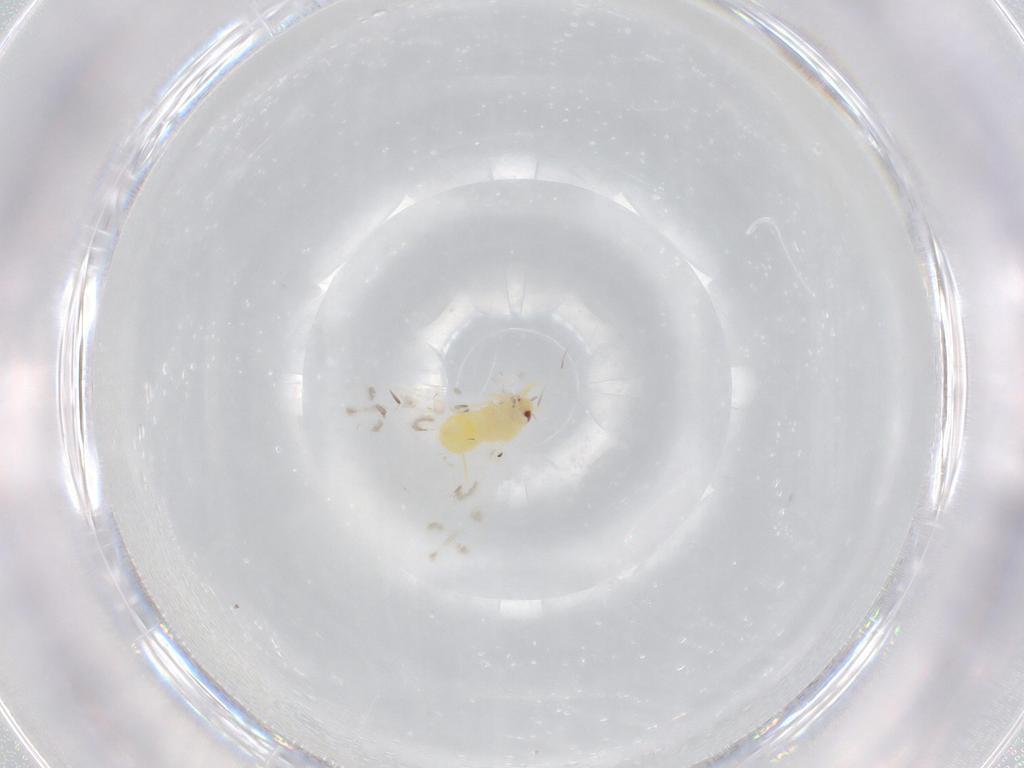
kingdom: Animalia
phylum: Arthropoda
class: Insecta
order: Hemiptera
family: Aleyrodidae
